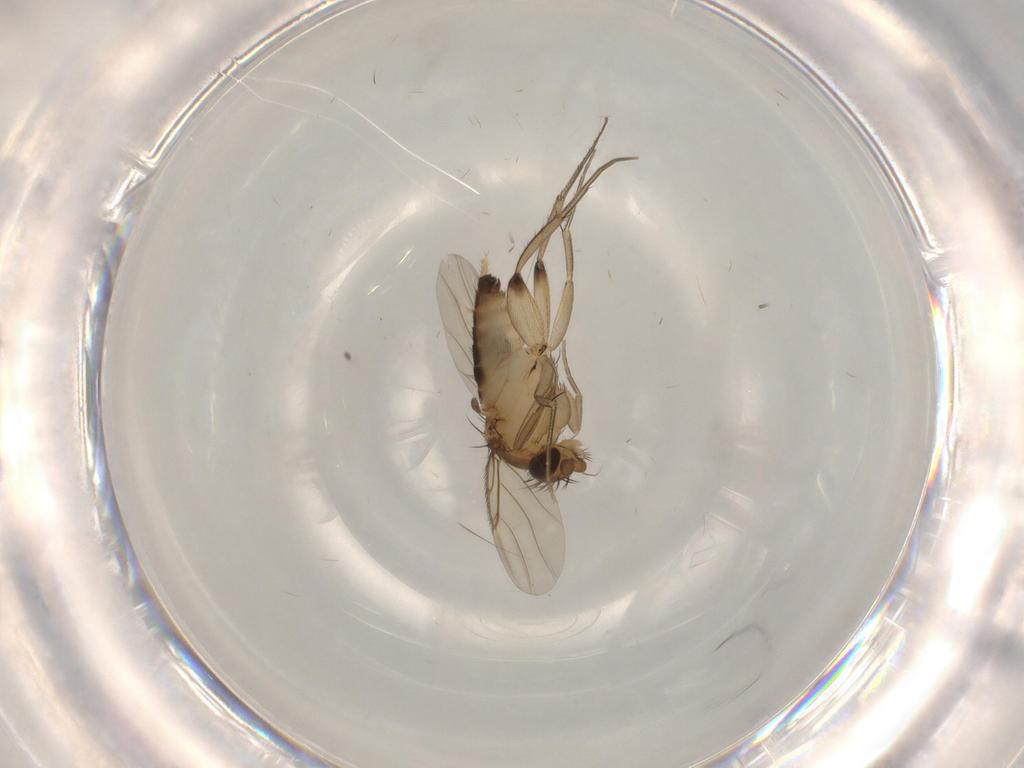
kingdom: Animalia
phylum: Arthropoda
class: Insecta
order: Diptera
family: Phoridae
